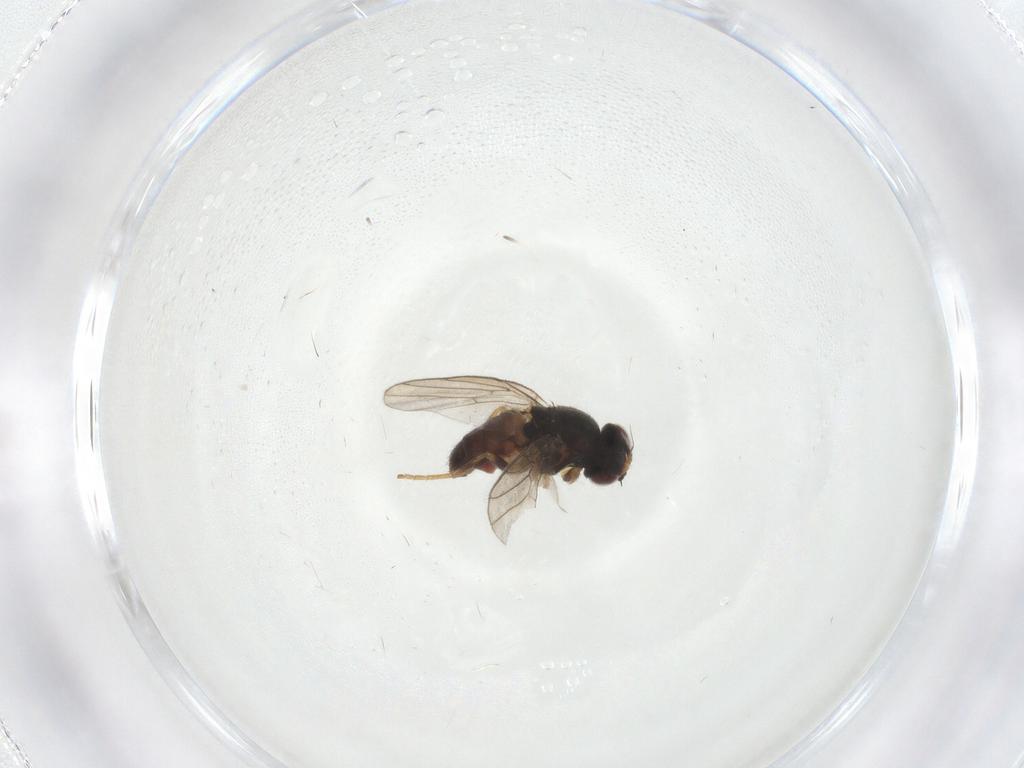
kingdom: Animalia
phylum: Arthropoda
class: Insecta
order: Diptera
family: Chloropidae
